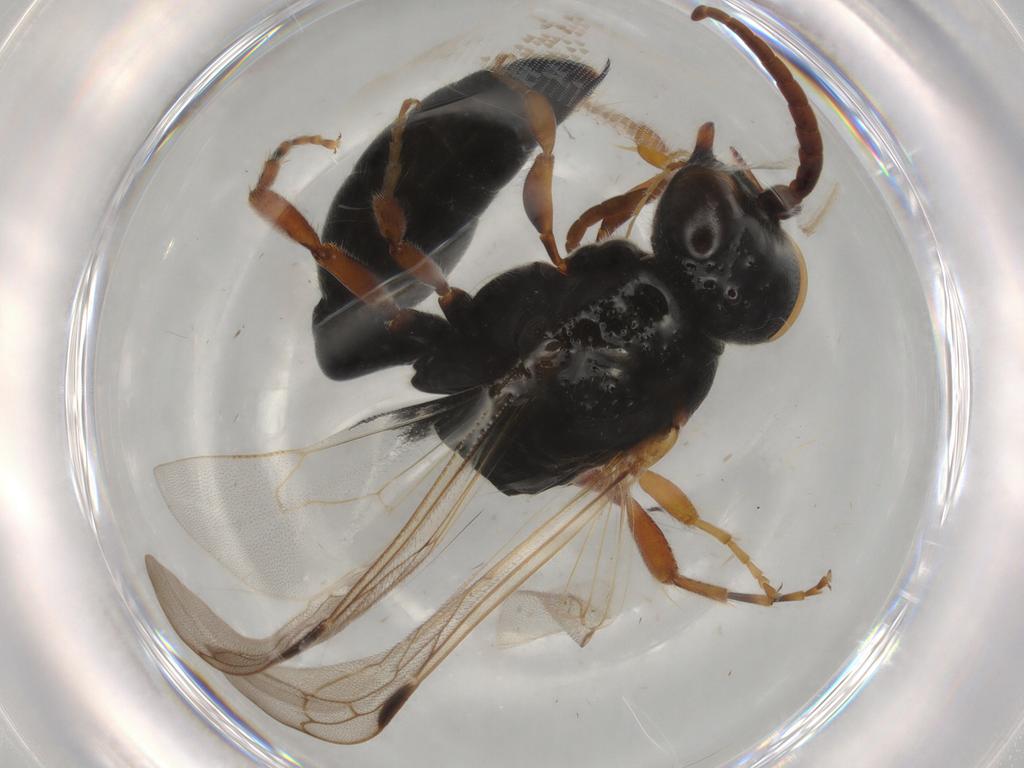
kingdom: Animalia
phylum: Arthropoda
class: Insecta
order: Hymenoptera
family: Tiphiidae
